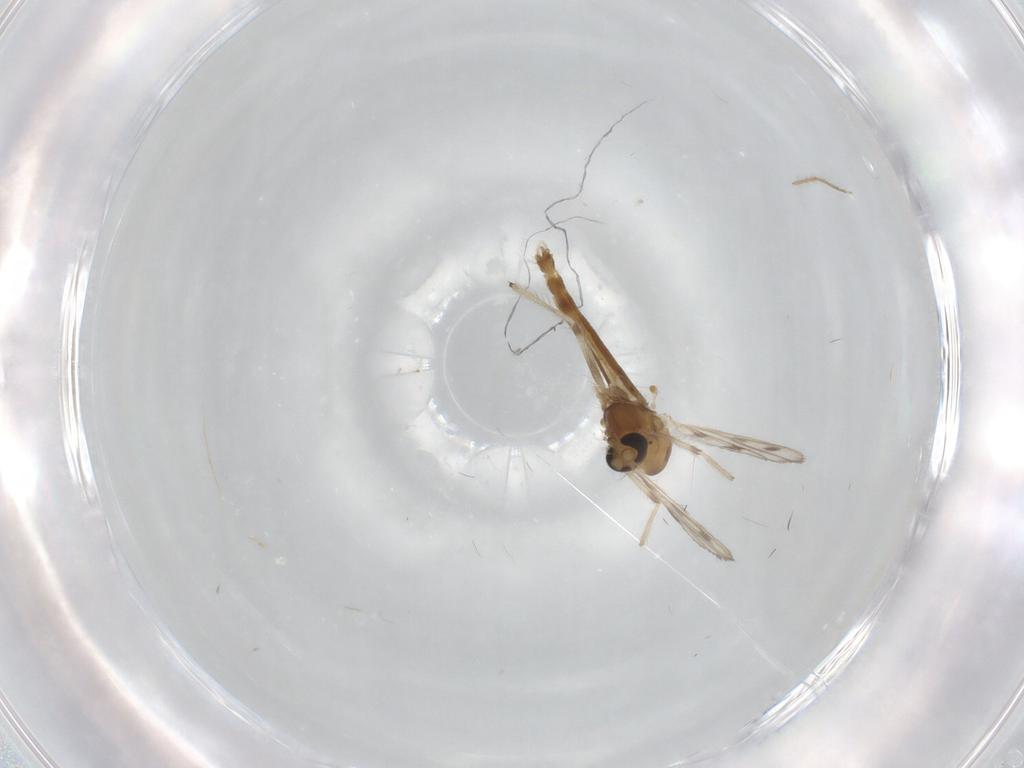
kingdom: Animalia
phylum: Arthropoda
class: Insecta
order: Diptera
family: Chironomidae
